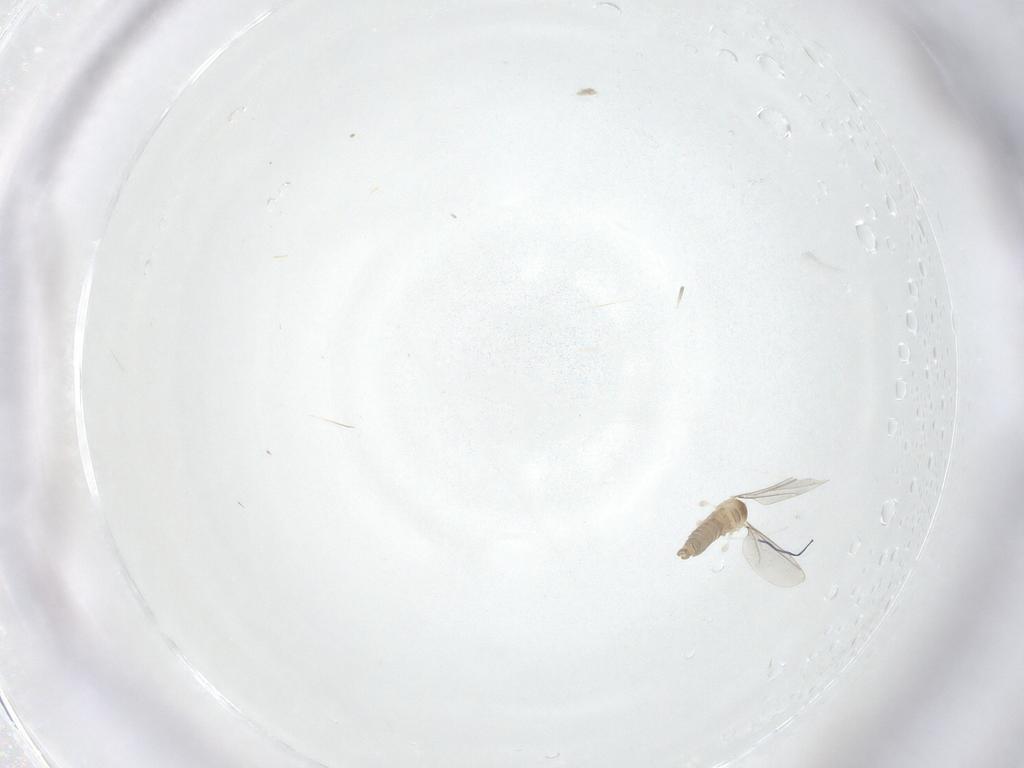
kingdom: Animalia
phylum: Arthropoda
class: Insecta
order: Diptera
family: Cecidomyiidae
